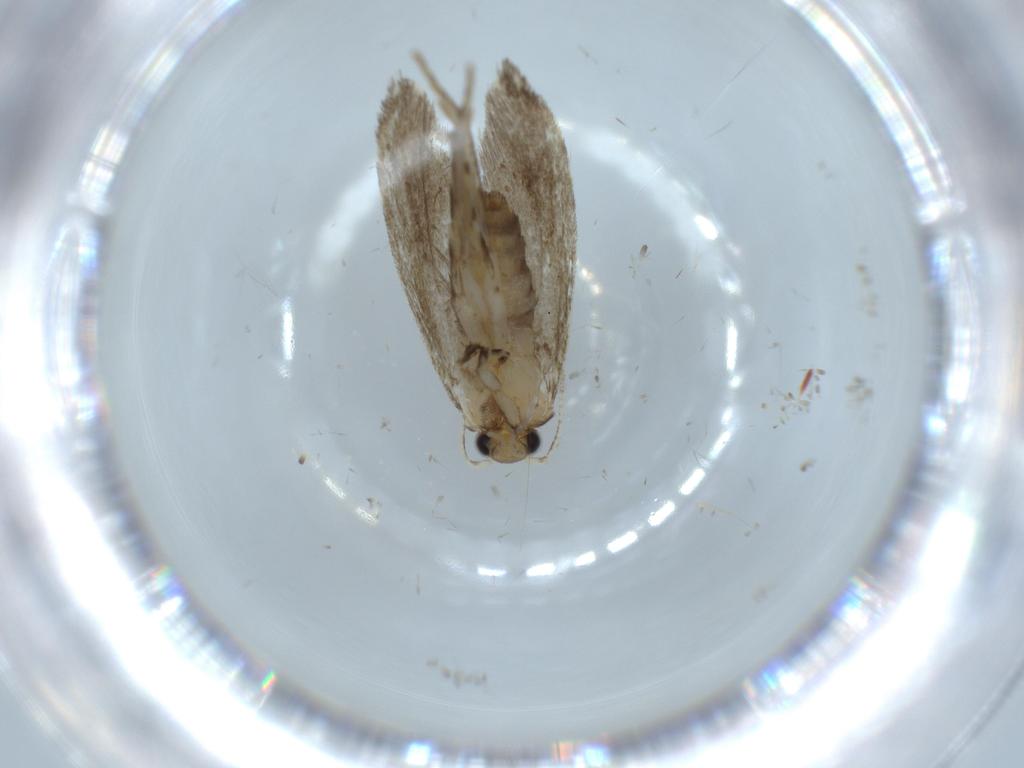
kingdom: Animalia
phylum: Arthropoda
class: Insecta
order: Lepidoptera
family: Tineidae
